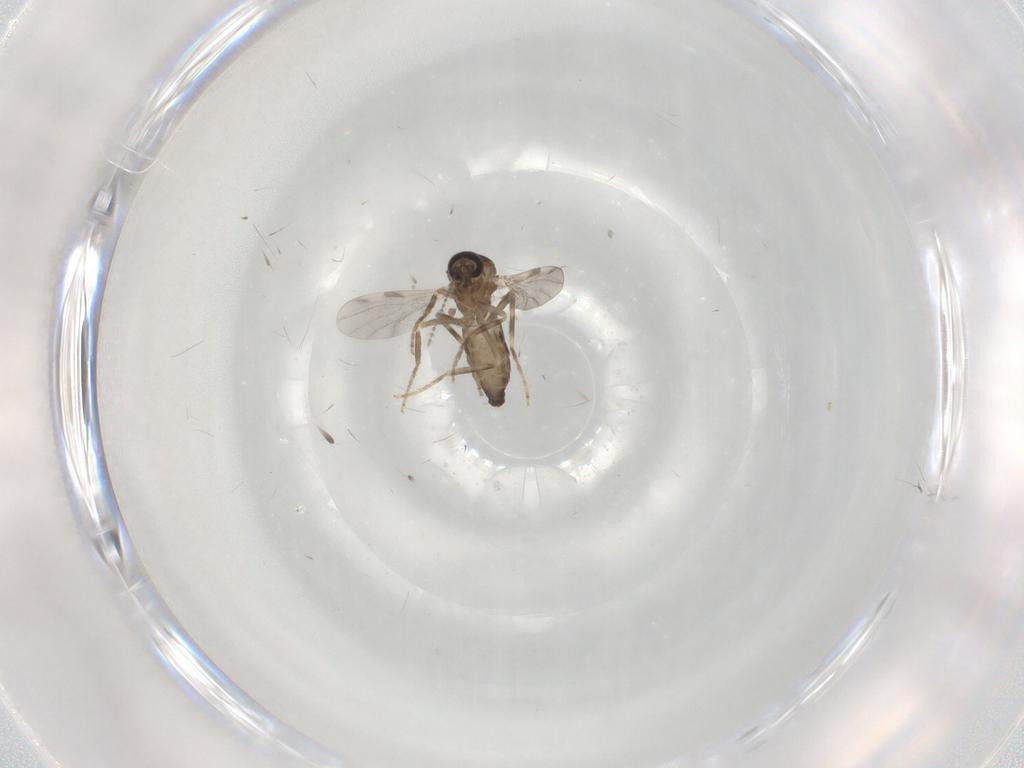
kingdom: Animalia
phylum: Arthropoda
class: Insecta
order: Diptera
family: Ceratopogonidae
